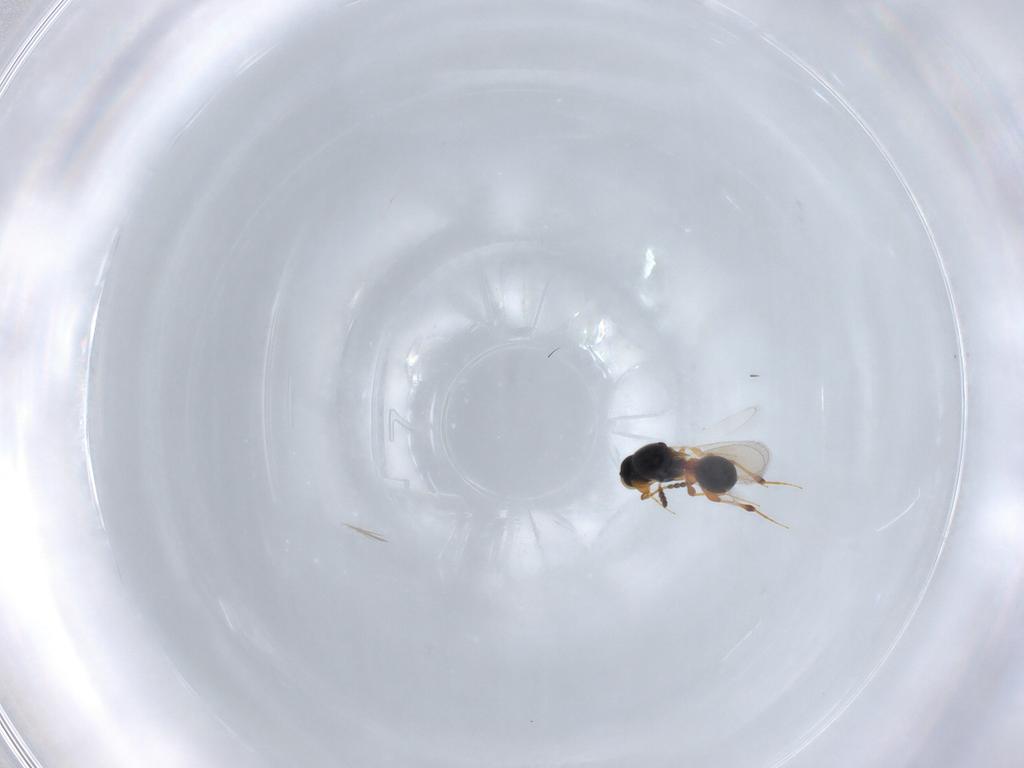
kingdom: Animalia
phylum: Arthropoda
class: Insecta
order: Hymenoptera
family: Platygastridae
